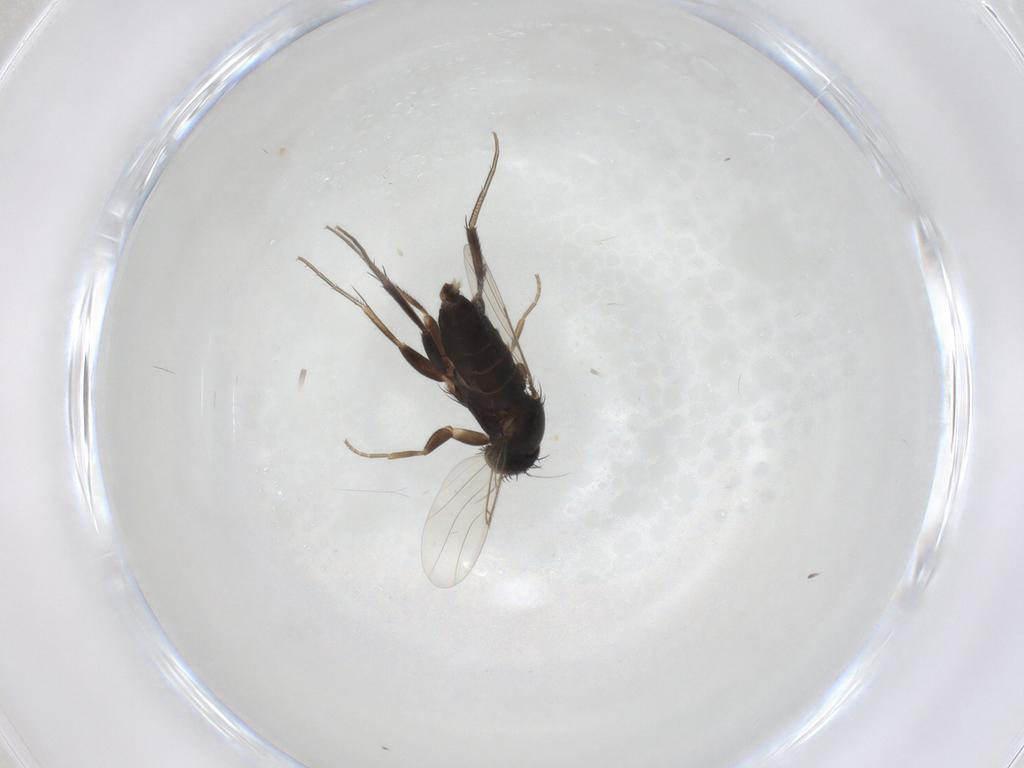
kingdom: Animalia
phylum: Arthropoda
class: Insecta
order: Diptera
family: Phoridae
